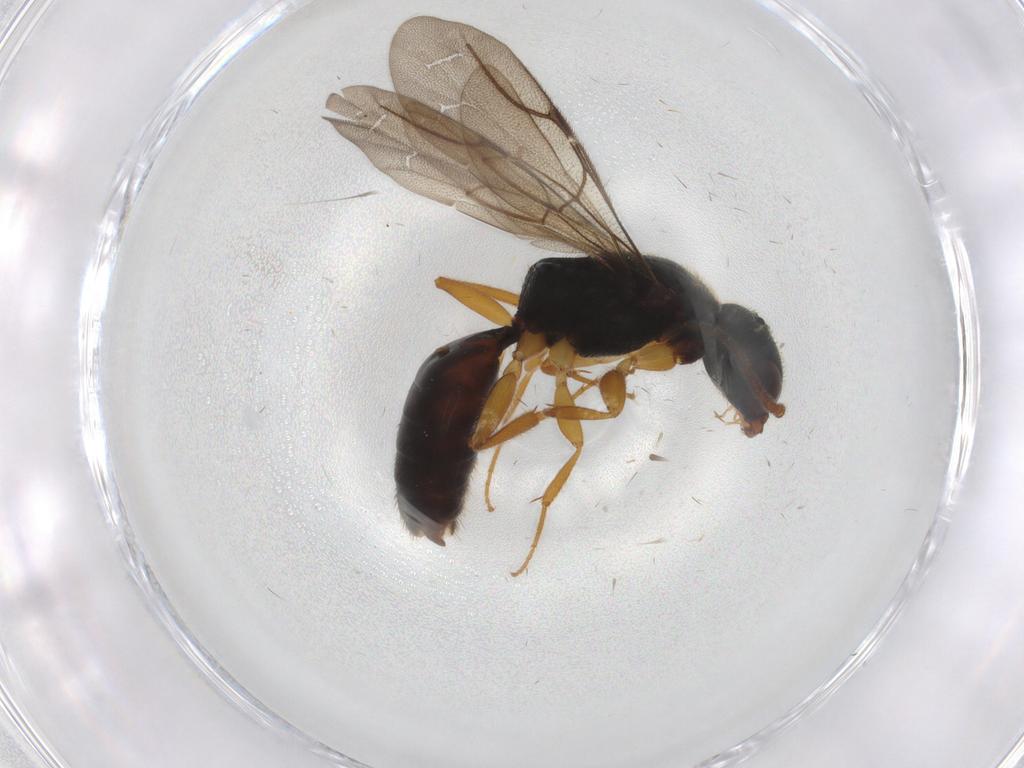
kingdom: Animalia
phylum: Arthropoda
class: Insecta
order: Hymenoptera
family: Bethylidae
